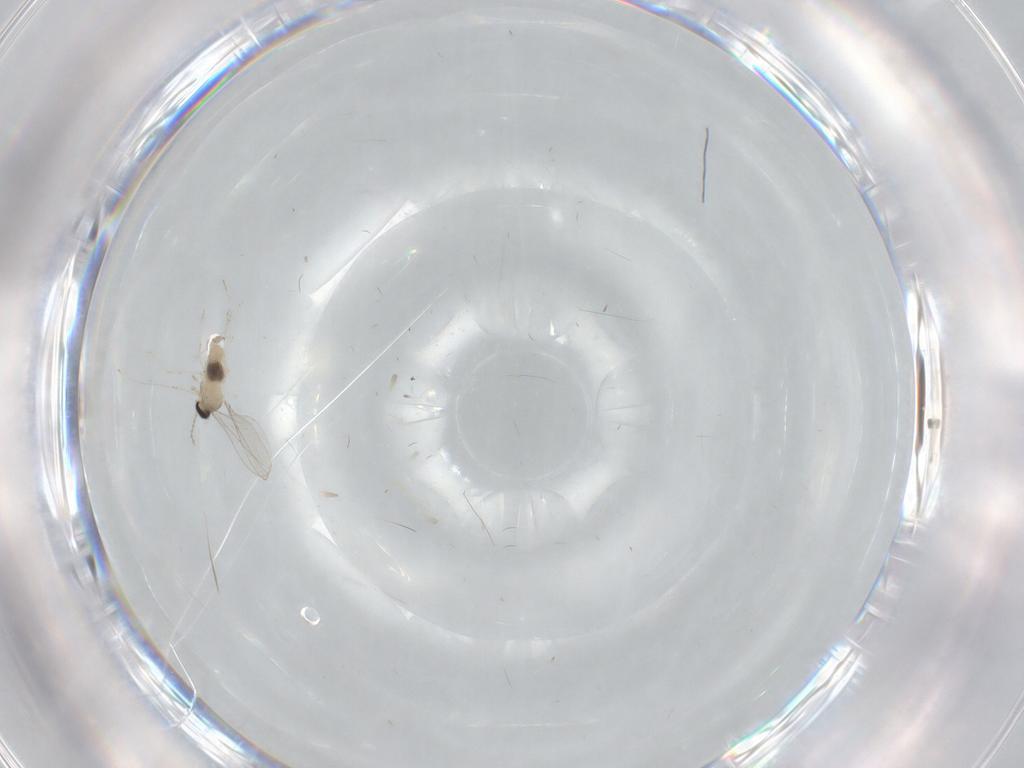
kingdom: Animalia
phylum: Arthropoda
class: Insecta
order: Diptera
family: Cecidomyiidae
